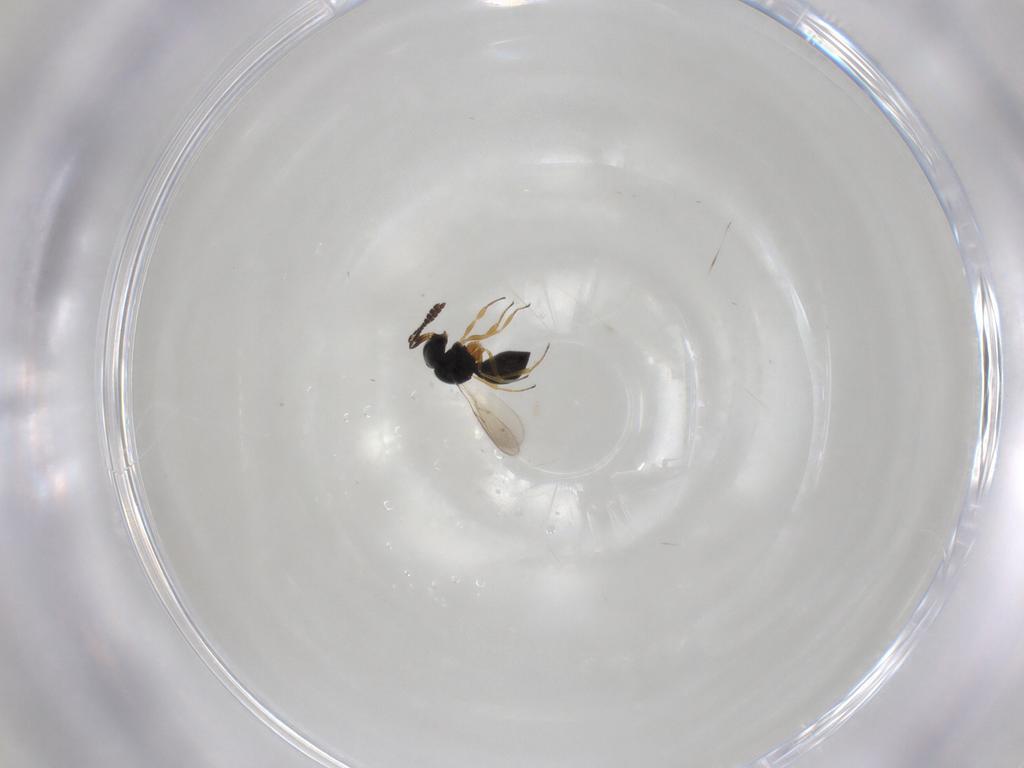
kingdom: Animalia
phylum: Arthropoda
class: Insecta
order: Hymenoptera
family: Scelionidae
